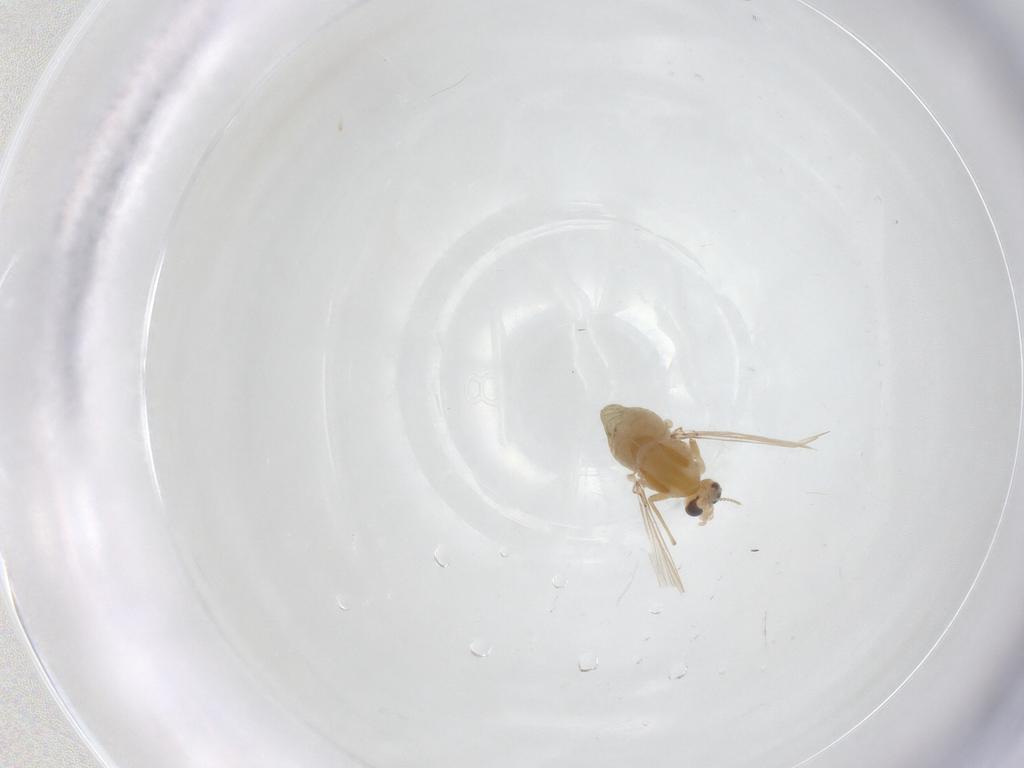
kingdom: Animalia
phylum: Arthropoda
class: Insecta
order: Diptera
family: Chironomidae
